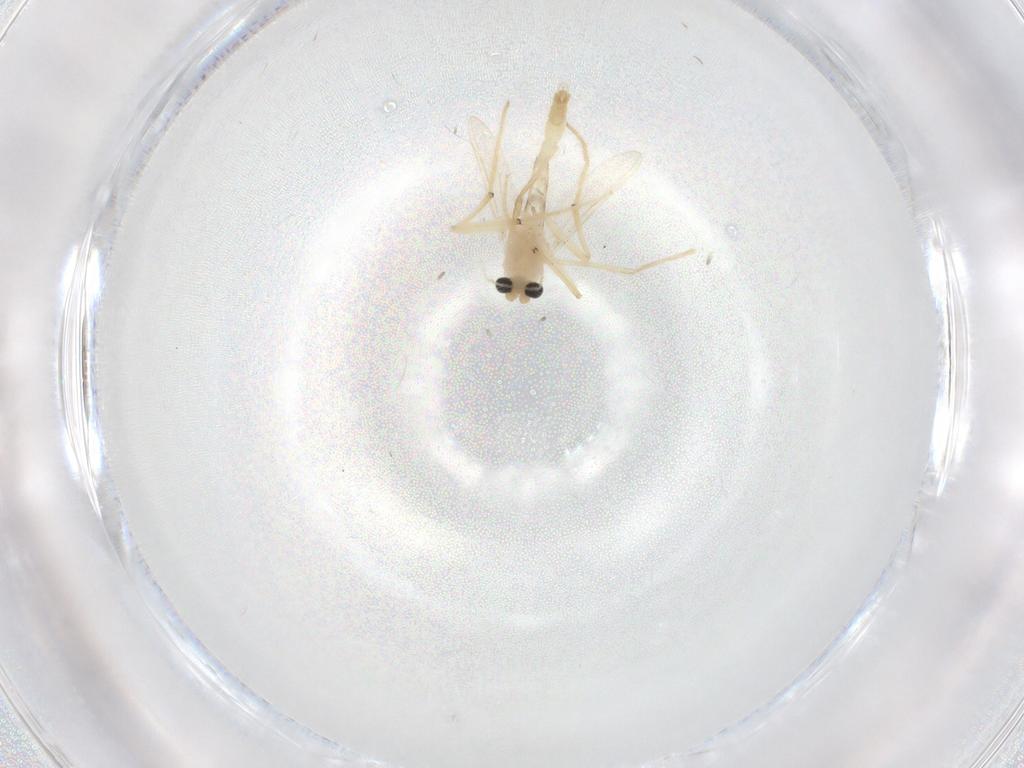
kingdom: Animalia
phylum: Arthropoda
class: Insecta
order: Diptera
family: Chironomidae
